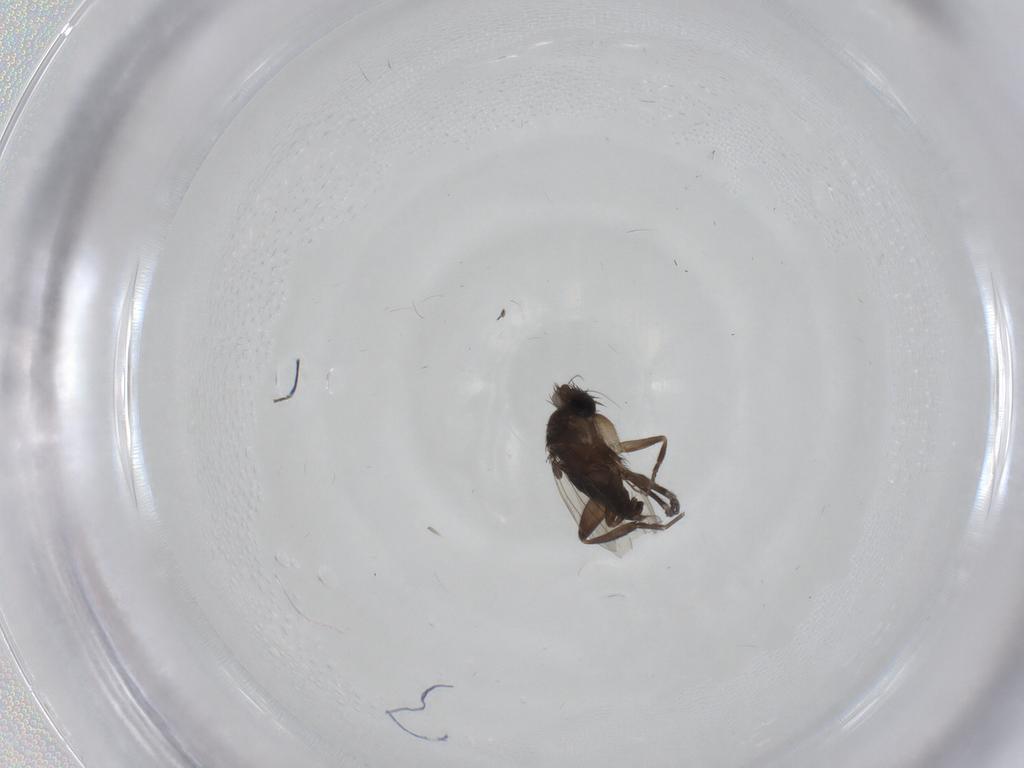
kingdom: Animalia
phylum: Arthropoda
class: Insecta
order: Diptera
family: Phoridae
